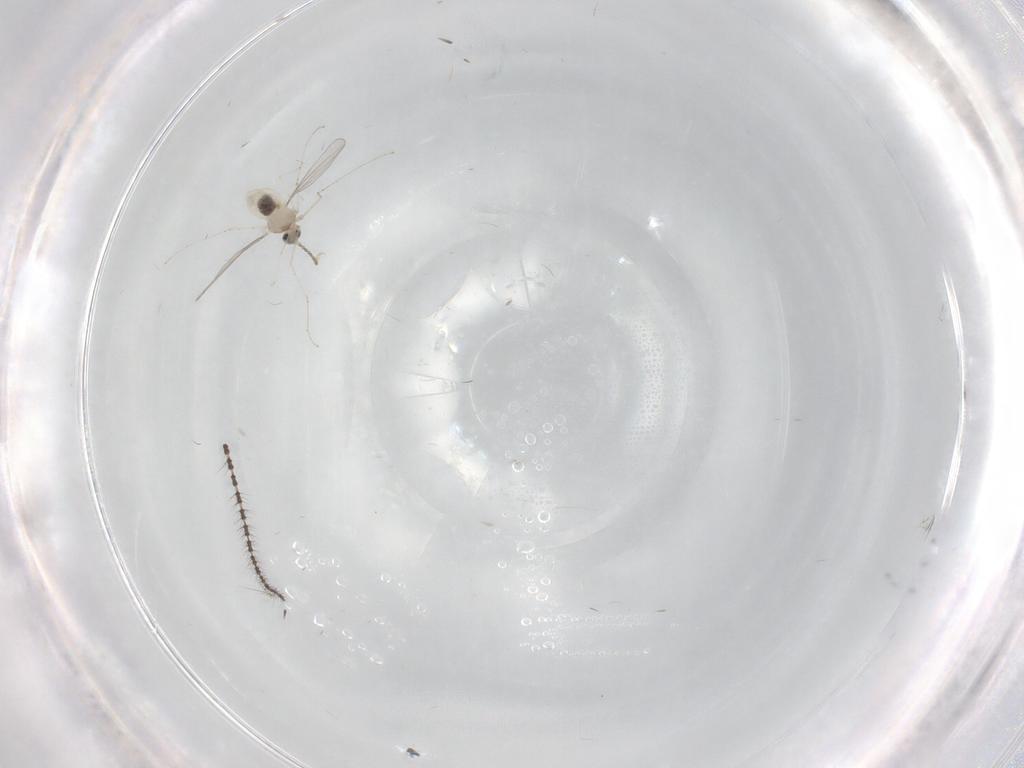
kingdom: Animalia
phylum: Arthropoda
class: Insecta
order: Diptera
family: Cecidomyiidae
